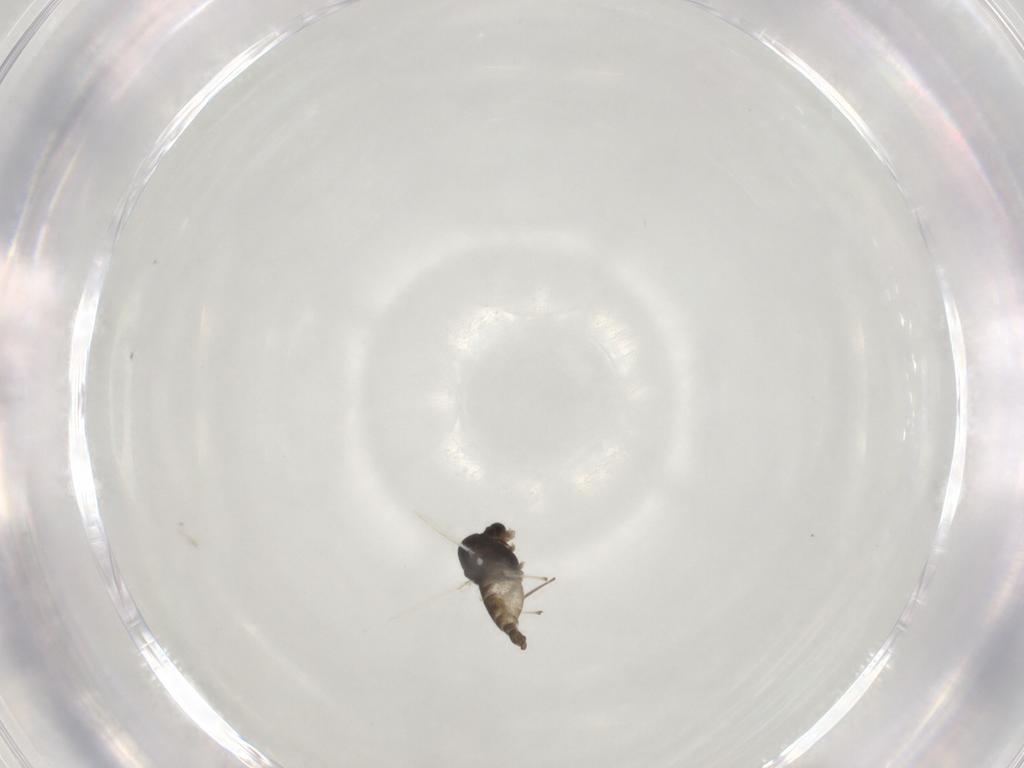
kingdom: Animalia
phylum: Arthropoda
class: Insecta
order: Diptera
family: Chironomidae
